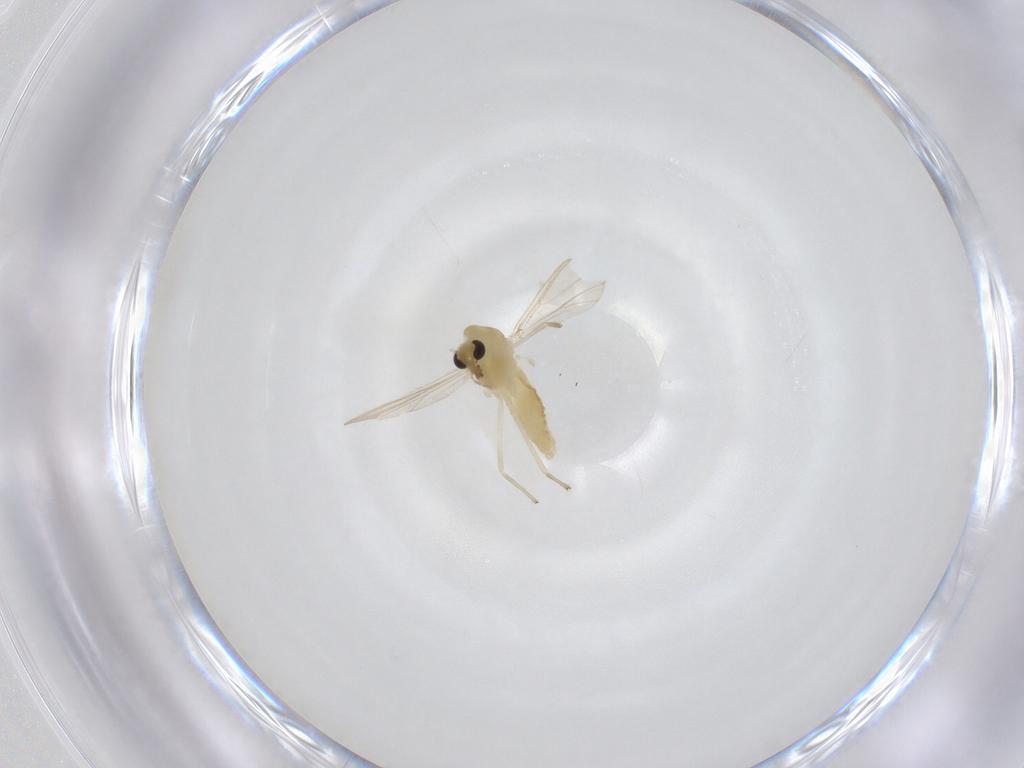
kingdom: Animalia
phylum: Arthropoda
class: Insecta
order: Diptera
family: Chironomidae
